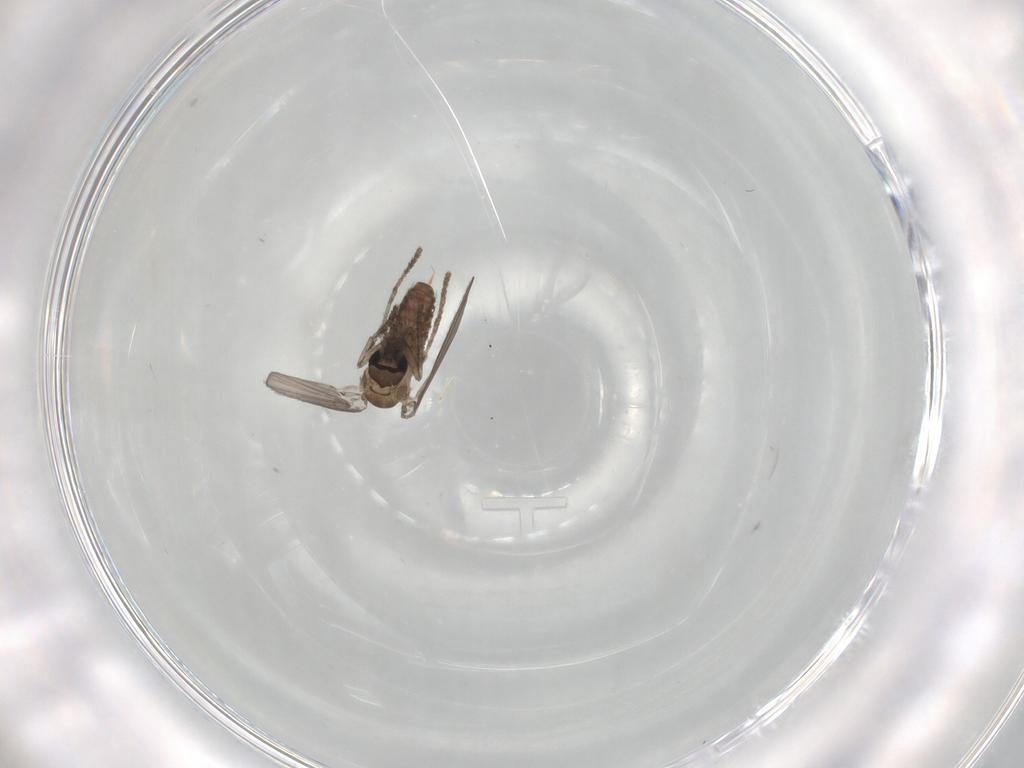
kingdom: Animalia
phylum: Arthropoda
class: Insecta
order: Diptera
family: Psychodidae
